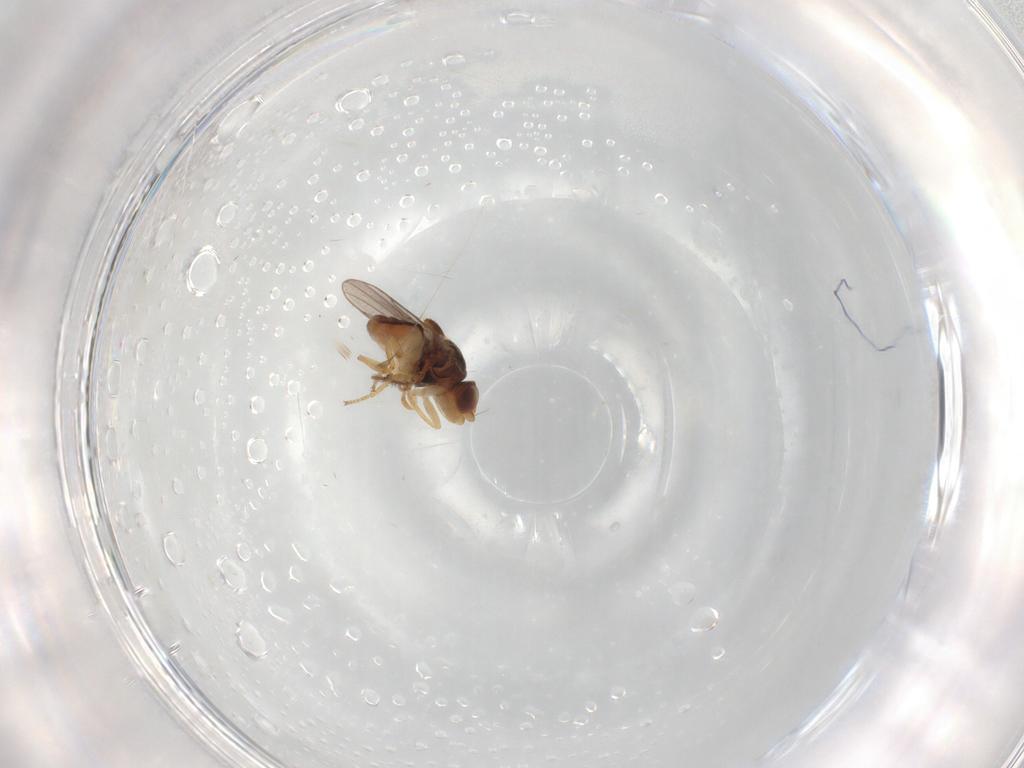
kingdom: Animalia
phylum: Arthropoda
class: Insecta
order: Diptera
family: Chloropidae
